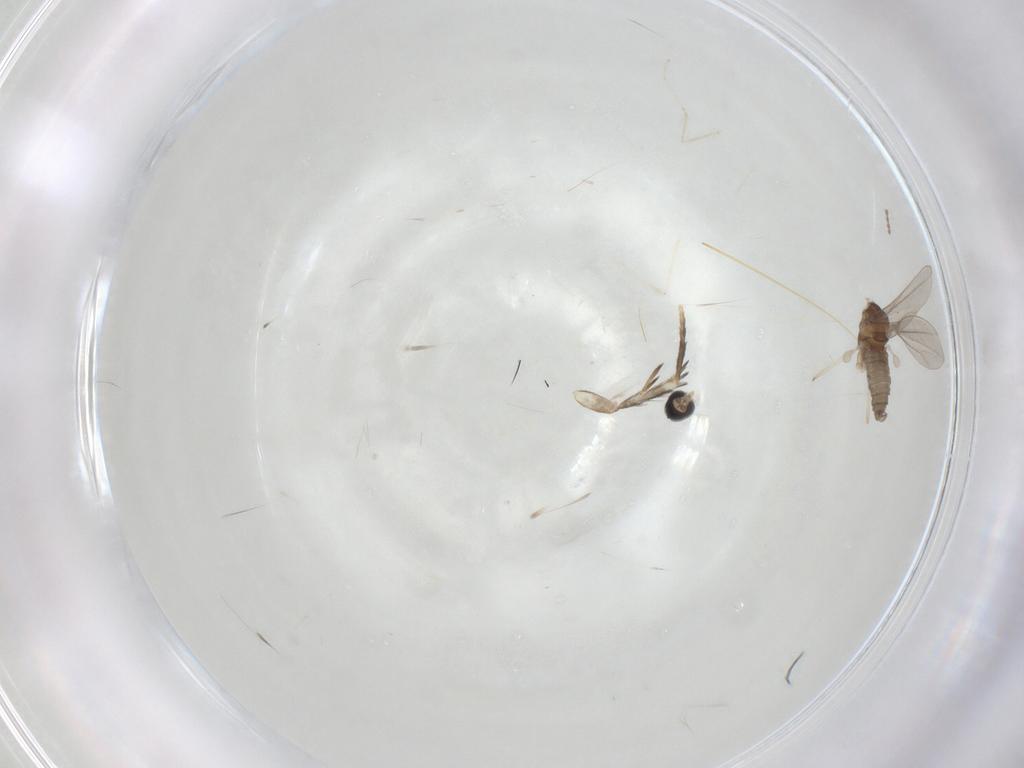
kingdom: Animalia
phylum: Arthropoda
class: Insecta
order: Diptera
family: Cecidomyiidae
